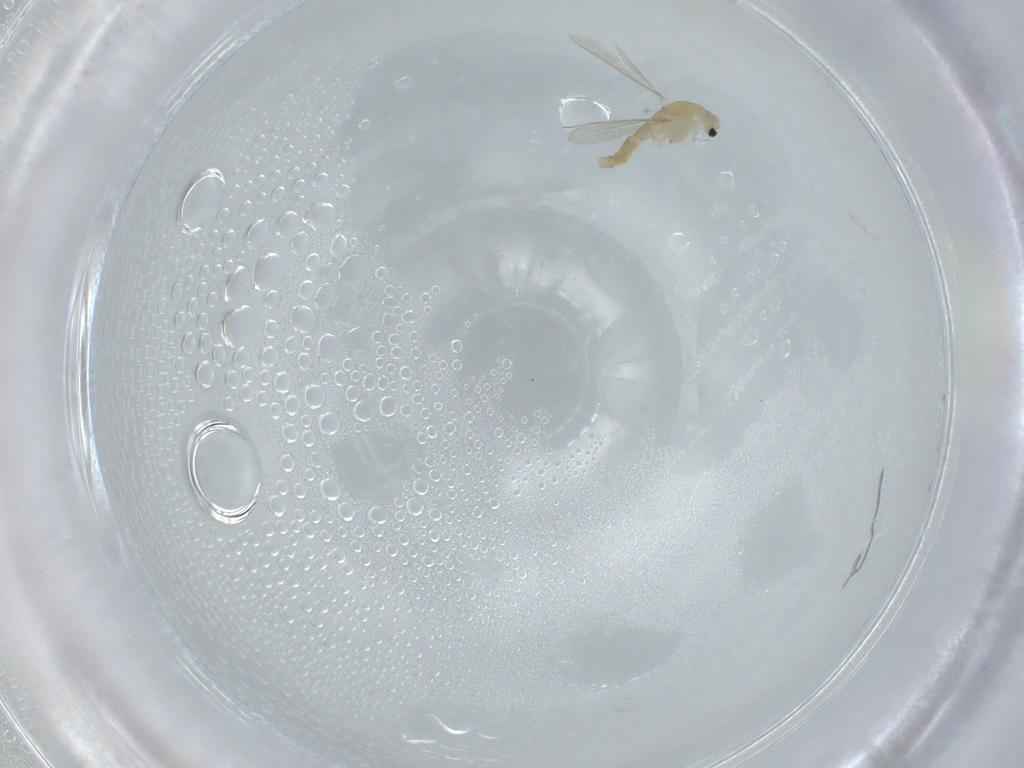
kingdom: Animalia
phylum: Arthropoda
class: Insecta
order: Diptera
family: Chironomidae
